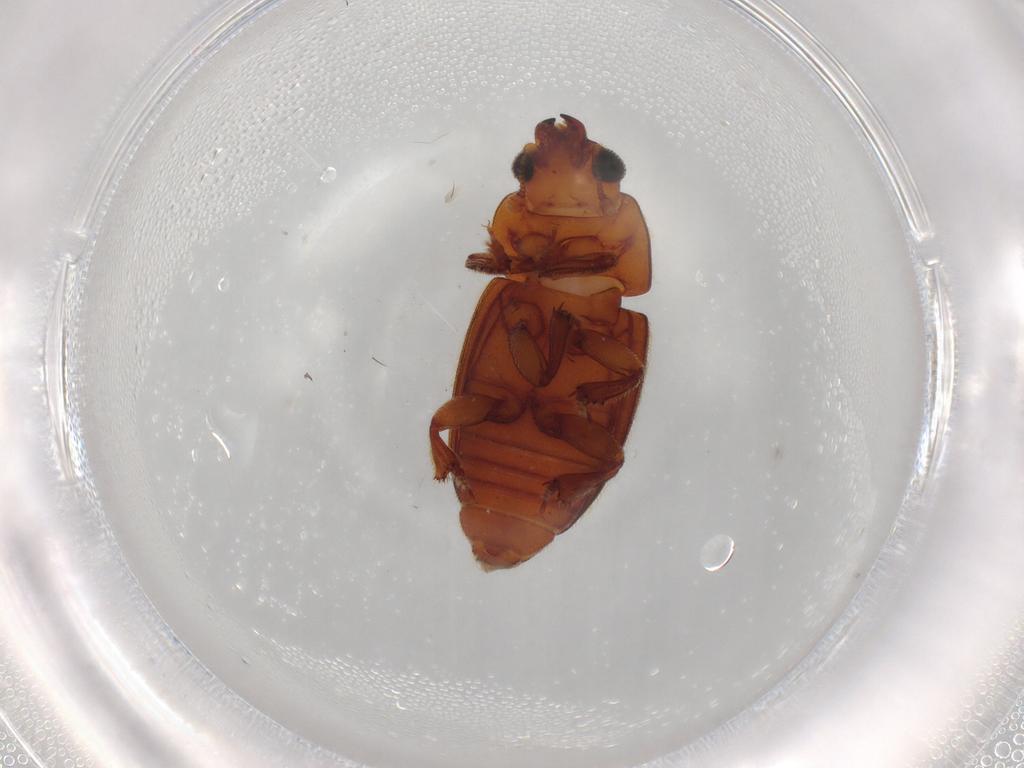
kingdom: Animalia
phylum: Arthropoda
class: Insecta
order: Coleoptera
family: Nitidulidae
